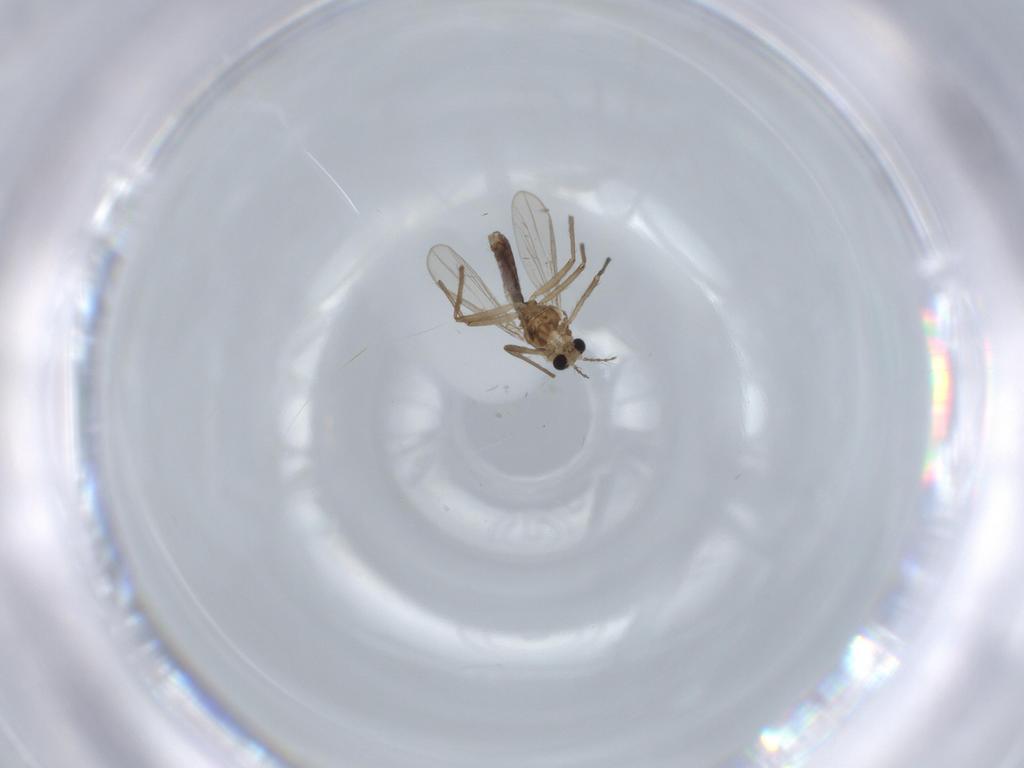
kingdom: Animalia
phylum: Arthropoda
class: Insecta
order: Diptera
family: Chironomidae
